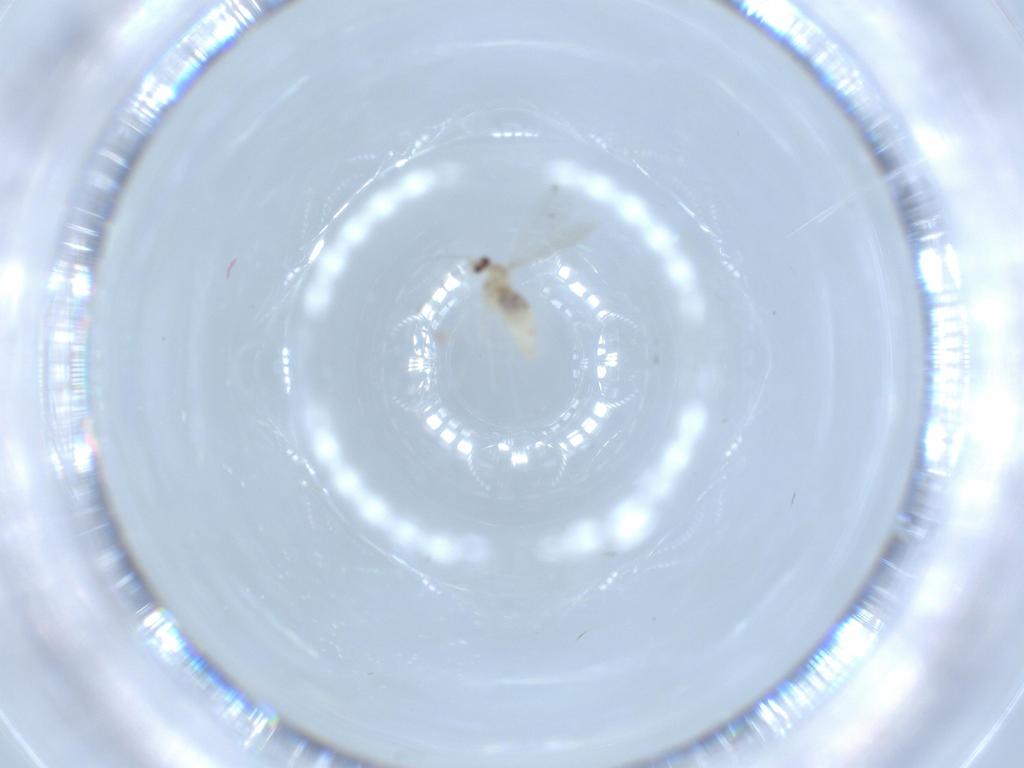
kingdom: Animalia
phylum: Arthropoda
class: Insecta
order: Diptera
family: Cecidomyiidae
